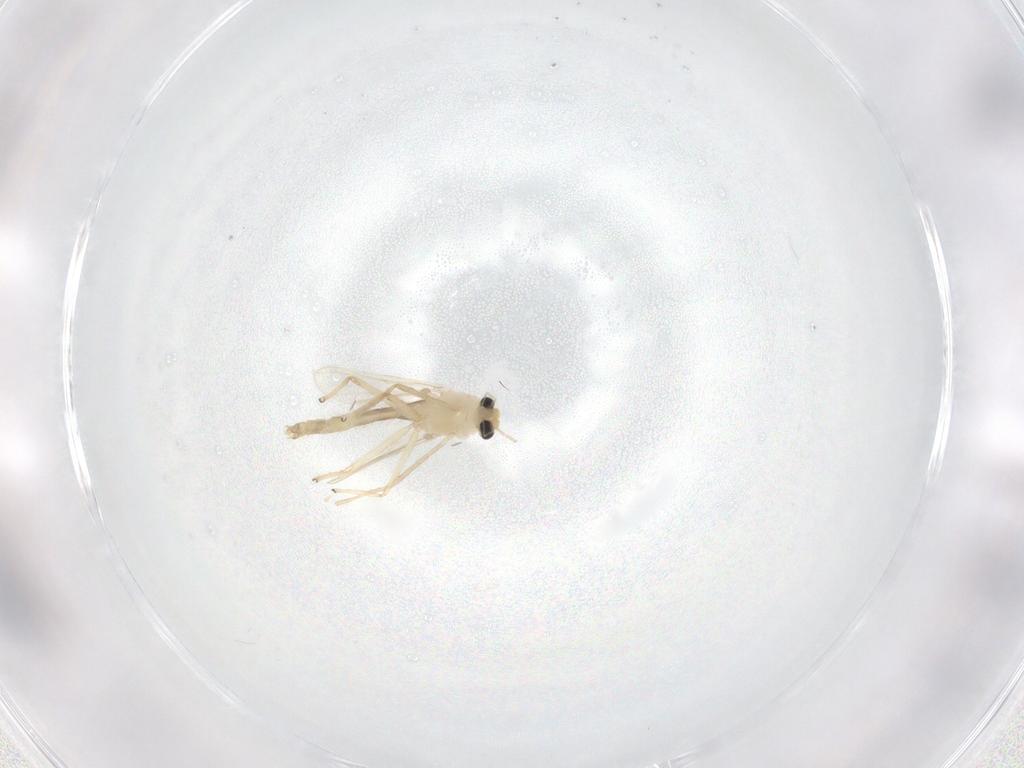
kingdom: Animalia
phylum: Arthropoda
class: Insecta
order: Diptera
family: Chironomidae
